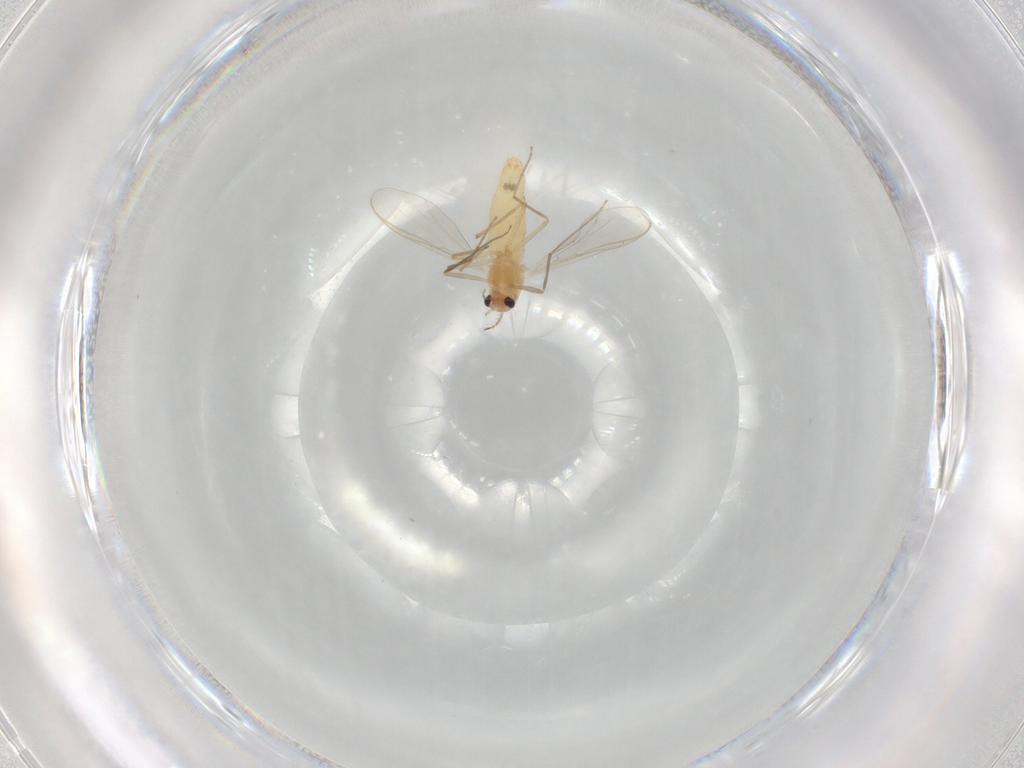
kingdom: Animalia
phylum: Arthropoda
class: Insecta
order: Diptera
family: Chironomidae
